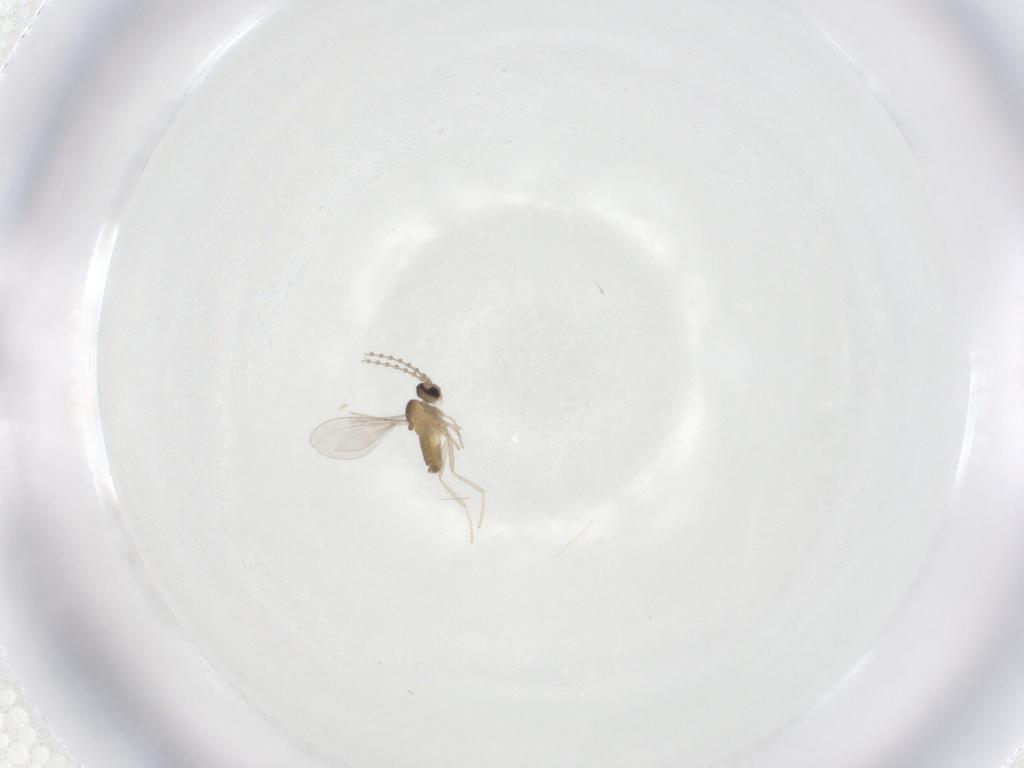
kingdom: Animalia
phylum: Arthropoda
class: Insecta
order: Diptera
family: Cecidomyiidae
